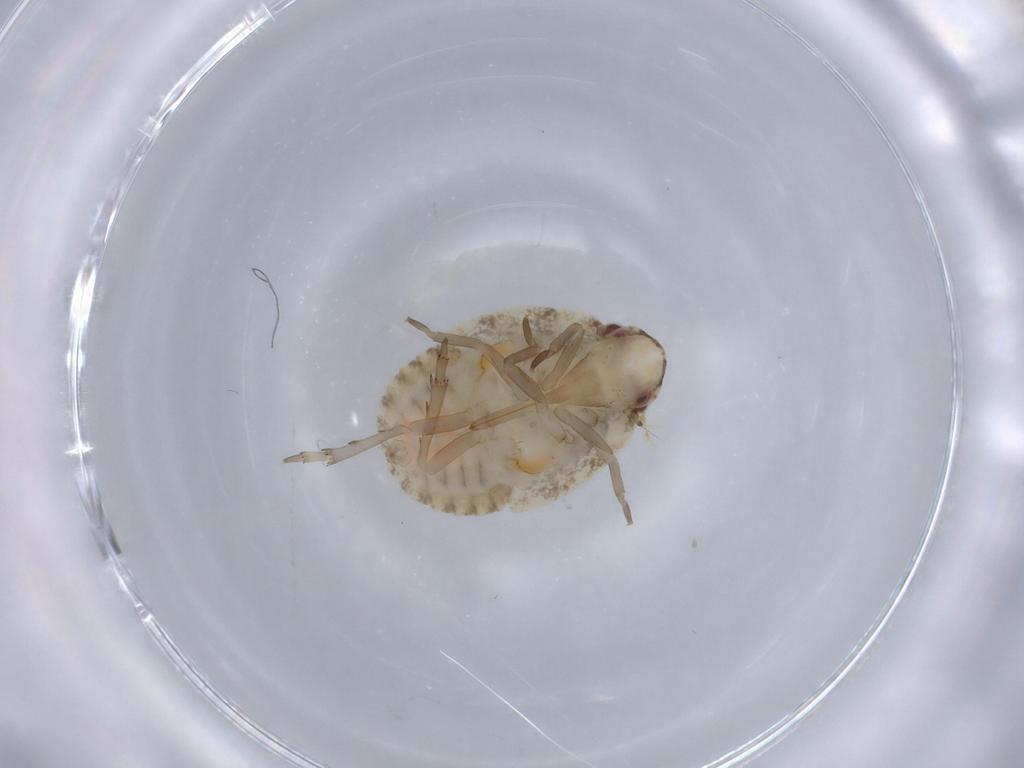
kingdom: Animalia
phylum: Arthropoda
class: Insecta
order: Hemiptera
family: Flatidae
